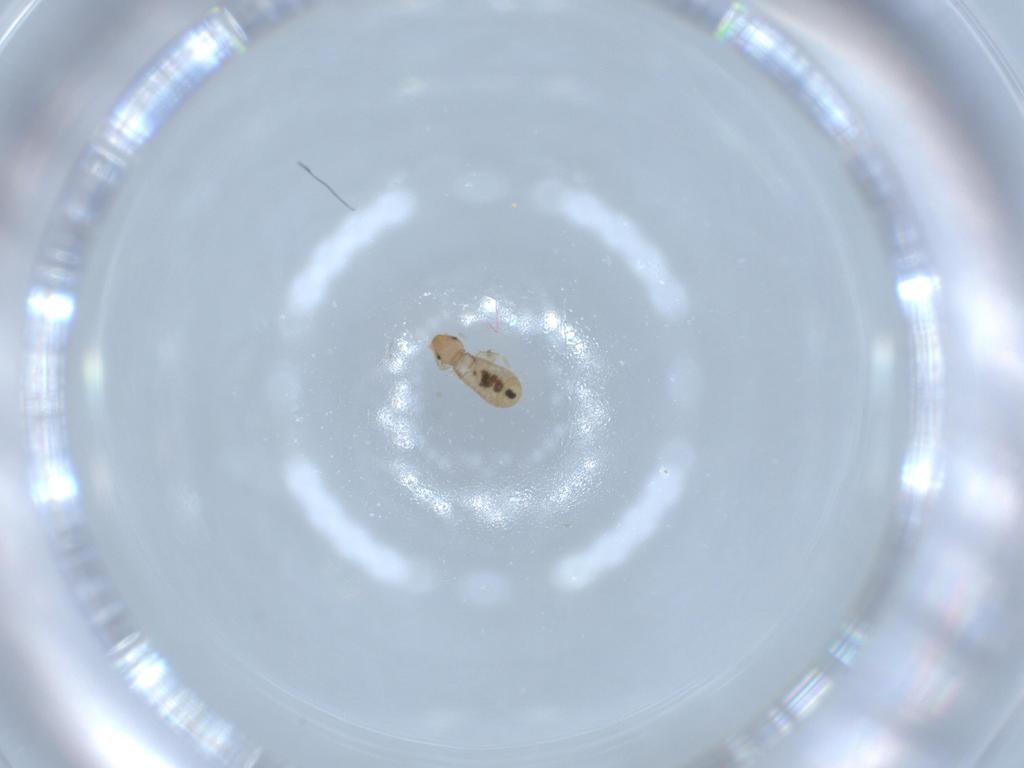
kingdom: Animalia
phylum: Arthropoda
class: Insecta
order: Psocodea
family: Liposcelididae
